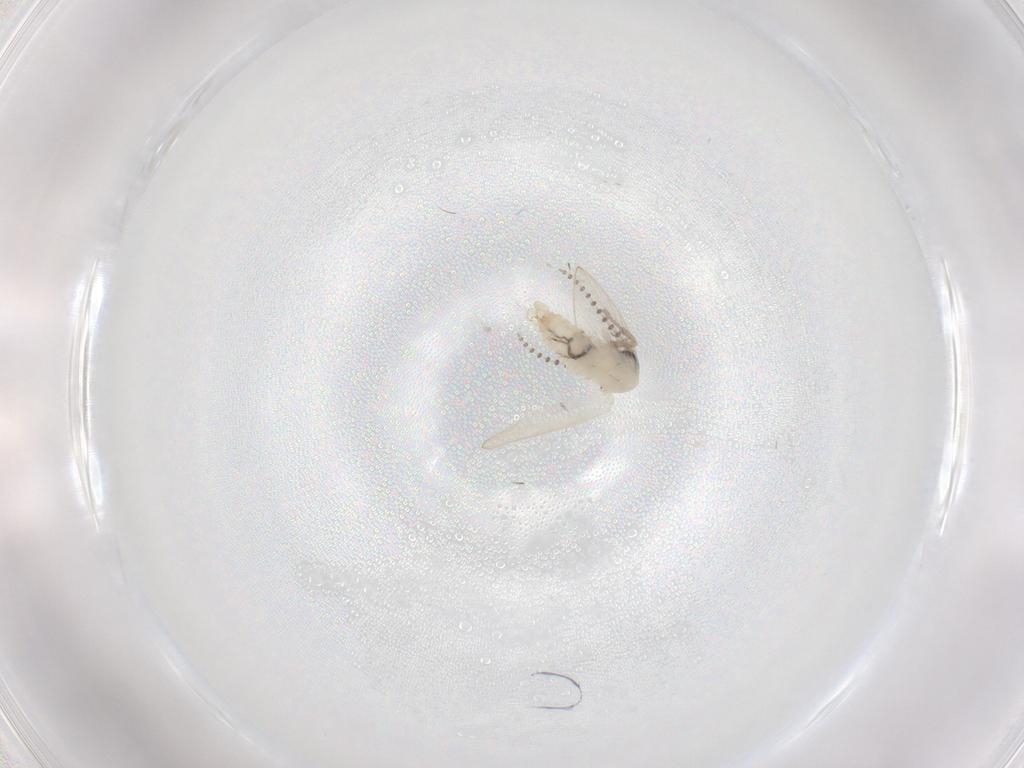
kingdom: Animalia
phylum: Arthropoda
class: Insecta
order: Diptera
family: Psychodidae
